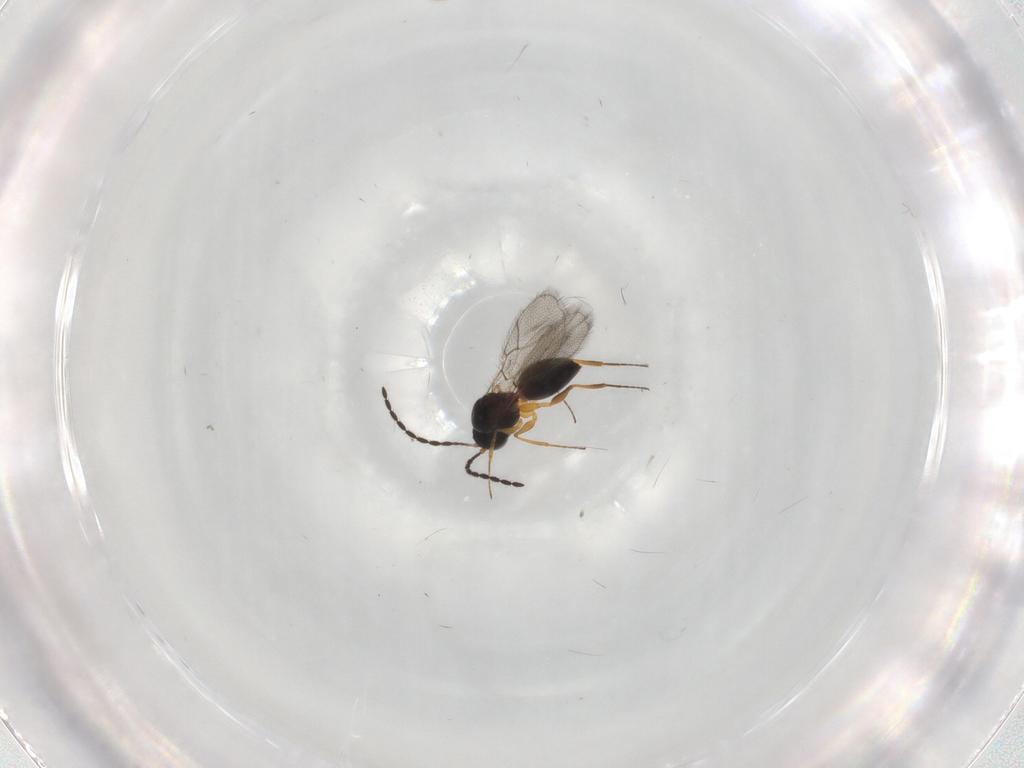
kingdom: Animalia
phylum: Arthropoda
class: Insecta
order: Hymenoptera
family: Figitidae
